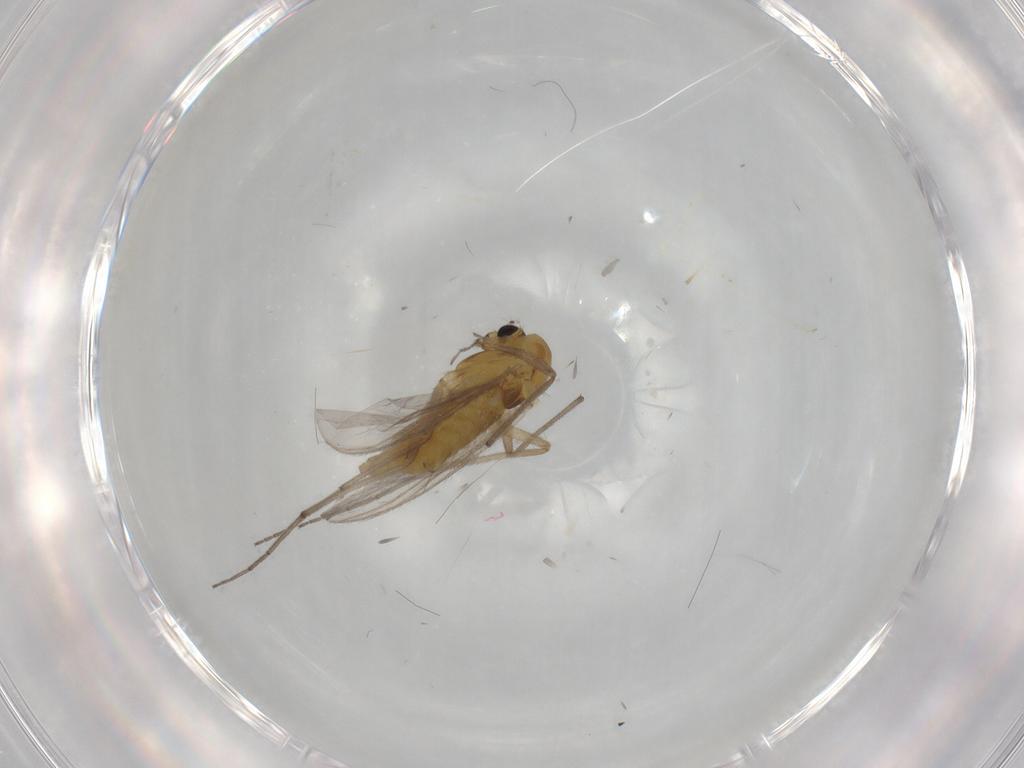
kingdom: Animalia
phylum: Arthropoda
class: Insecta
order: Diptera
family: Chironomidae
